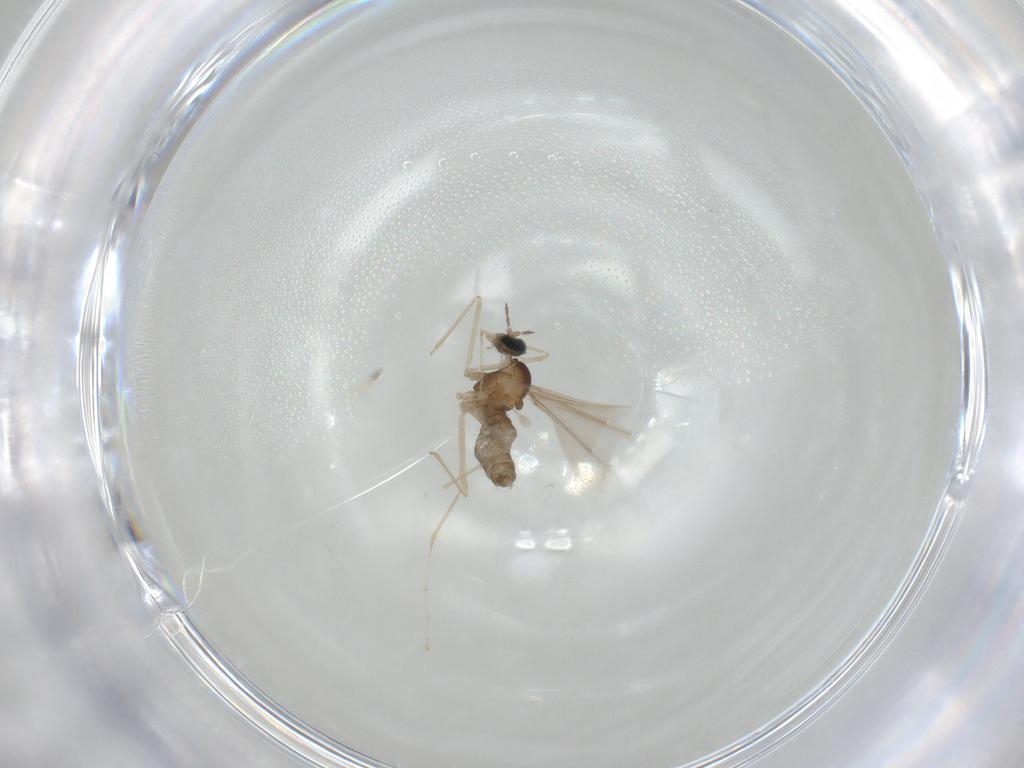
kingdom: Animalia
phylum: Arthropoda
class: Insecta
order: Diptera
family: Cecidomyiidae
